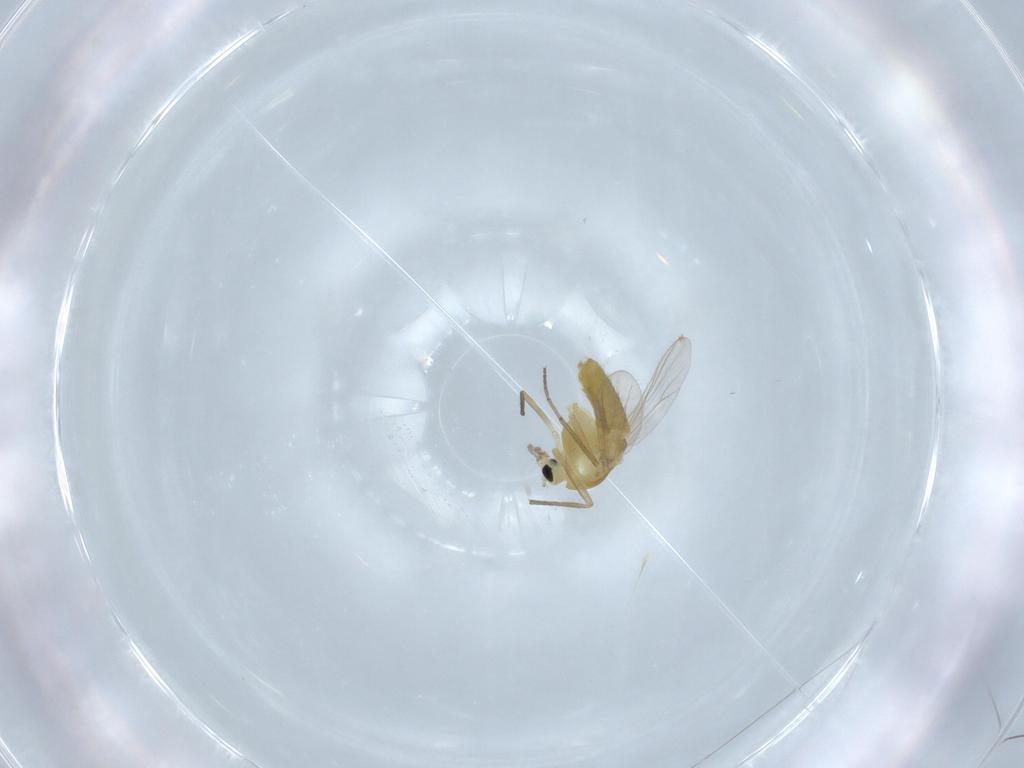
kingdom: Animalia
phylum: Arthropoda
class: Insecta
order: Diptera
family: Chironomidae
